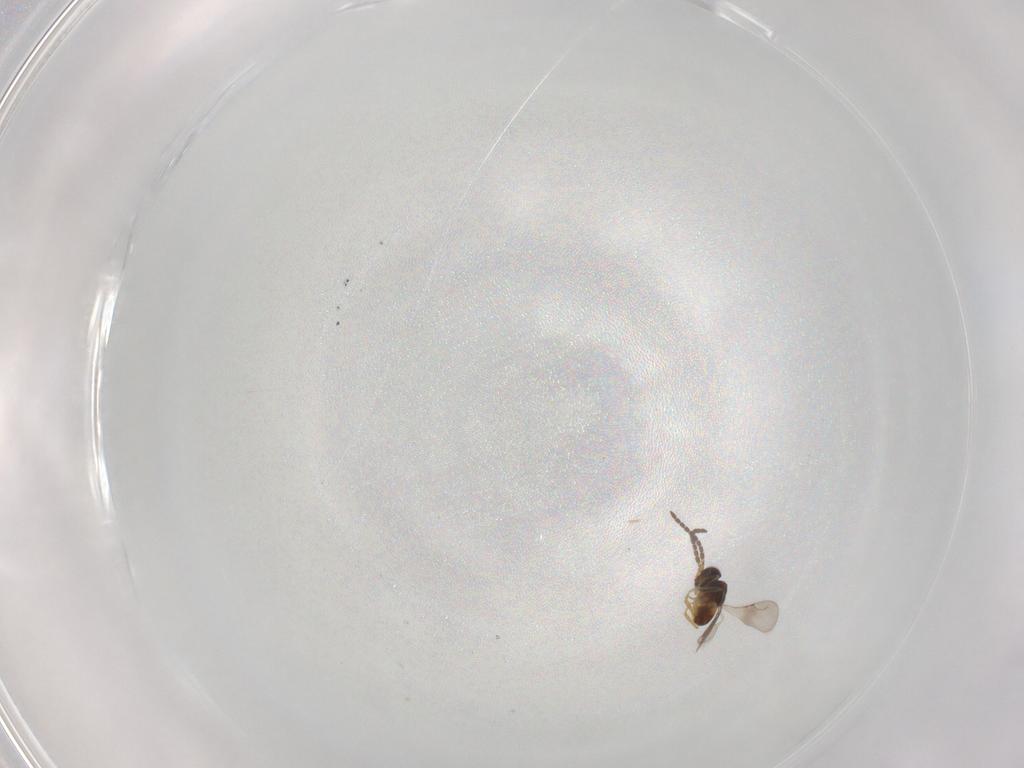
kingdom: Animalia
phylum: Arthropoda
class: Insecta
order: Hymenoptera
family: Ceraphronidae
